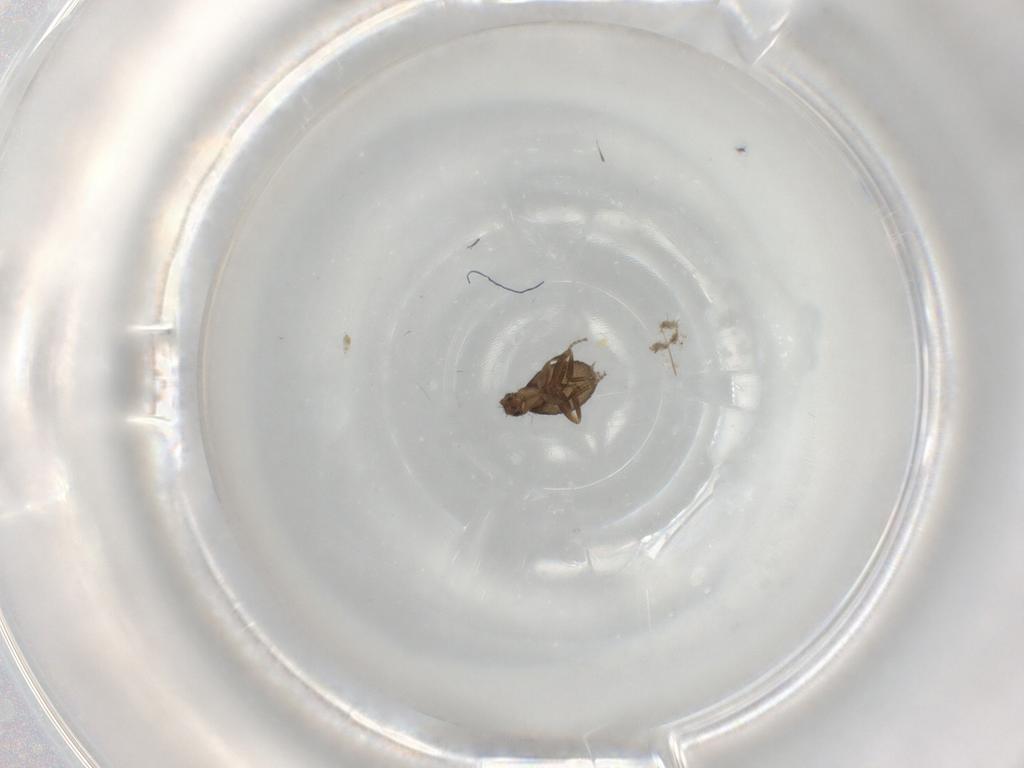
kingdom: Animalia
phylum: Arthropoda
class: Insecta
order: Diptera
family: Phoridae
